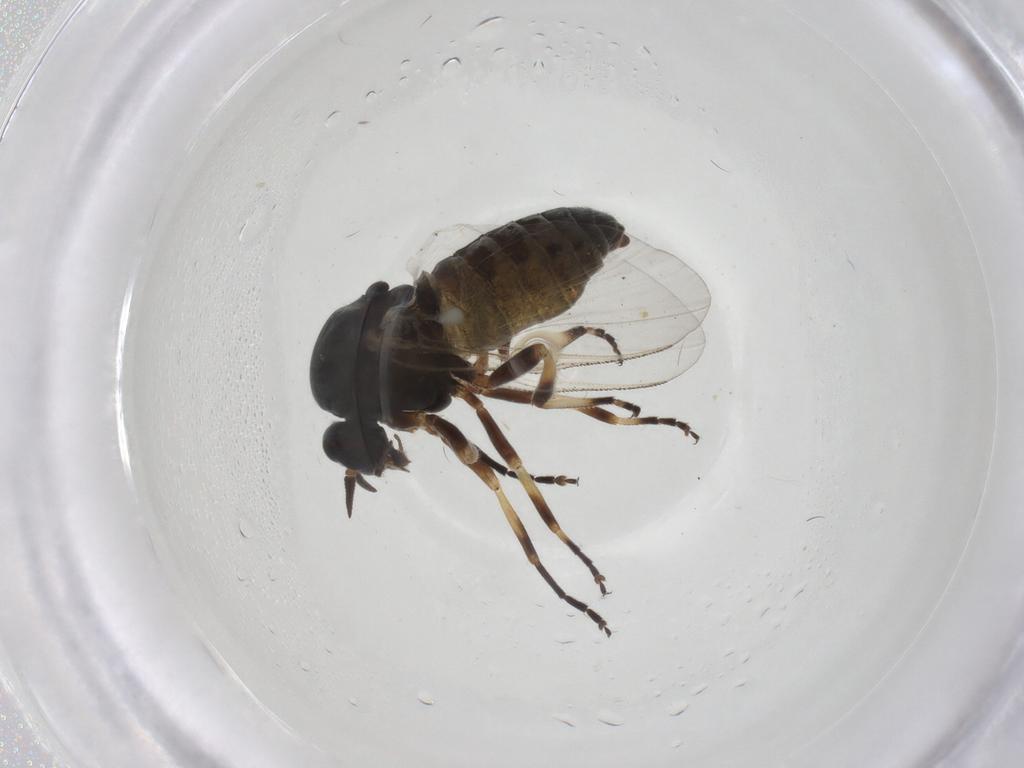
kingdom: Animalia
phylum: Arthropoda
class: Insecta
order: Diptera
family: Simuliidae
